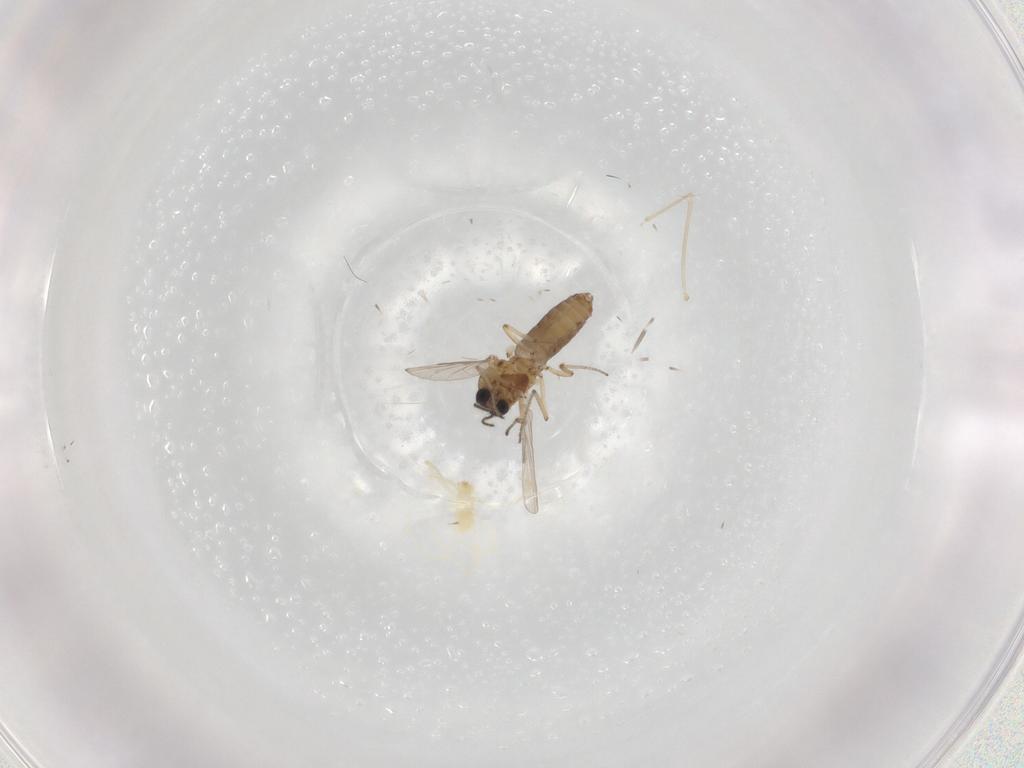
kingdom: Animalia
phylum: Arthropoda
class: Insecta
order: Diptera
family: Ceratopogonidae
